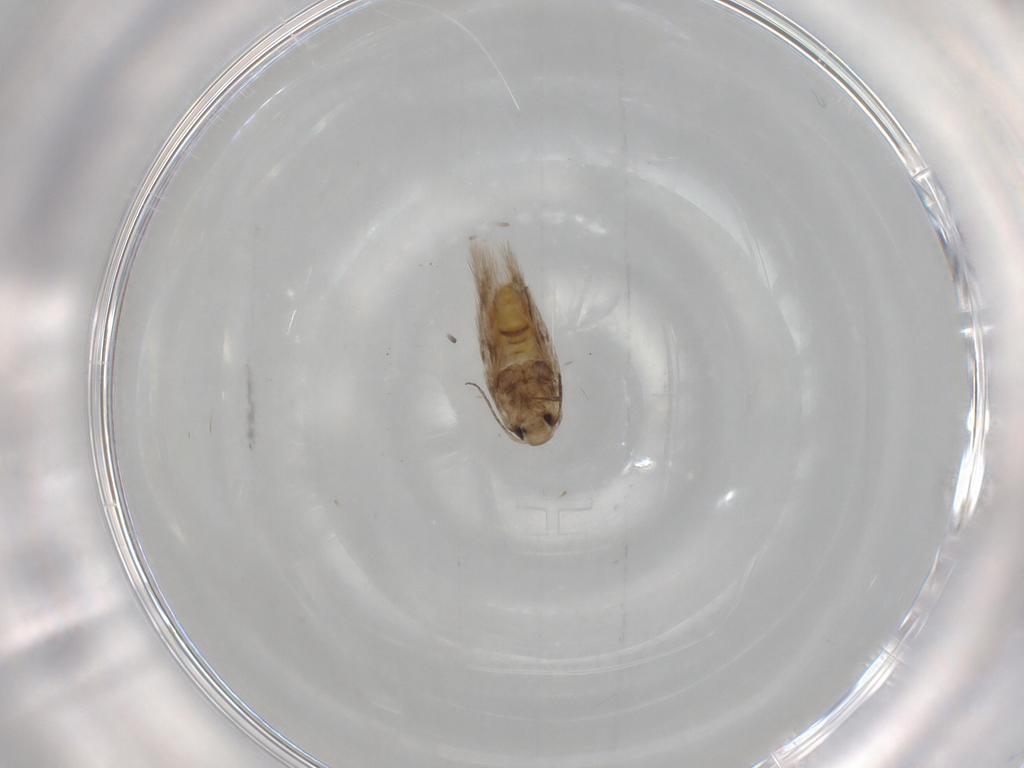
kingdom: Animalia
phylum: Arthropoda
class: Insecta
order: Lepidoptera
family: Nymphalidae
